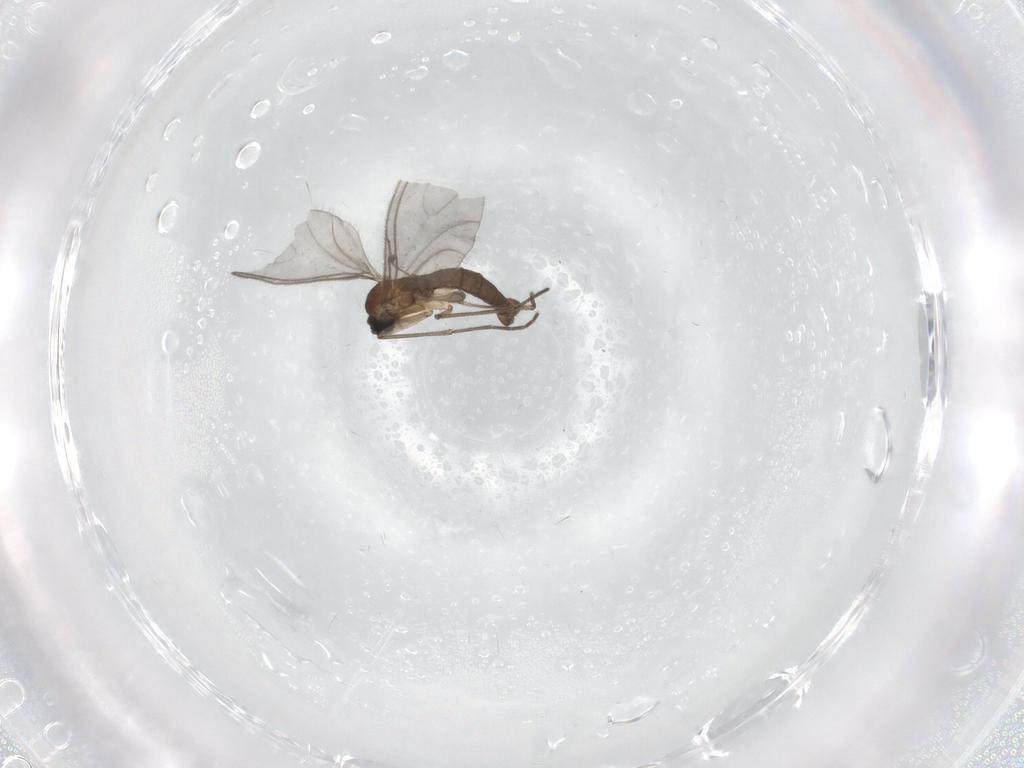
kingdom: Animalia
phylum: Arthropoda
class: Insecta
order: Diptera
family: Sciaridae
